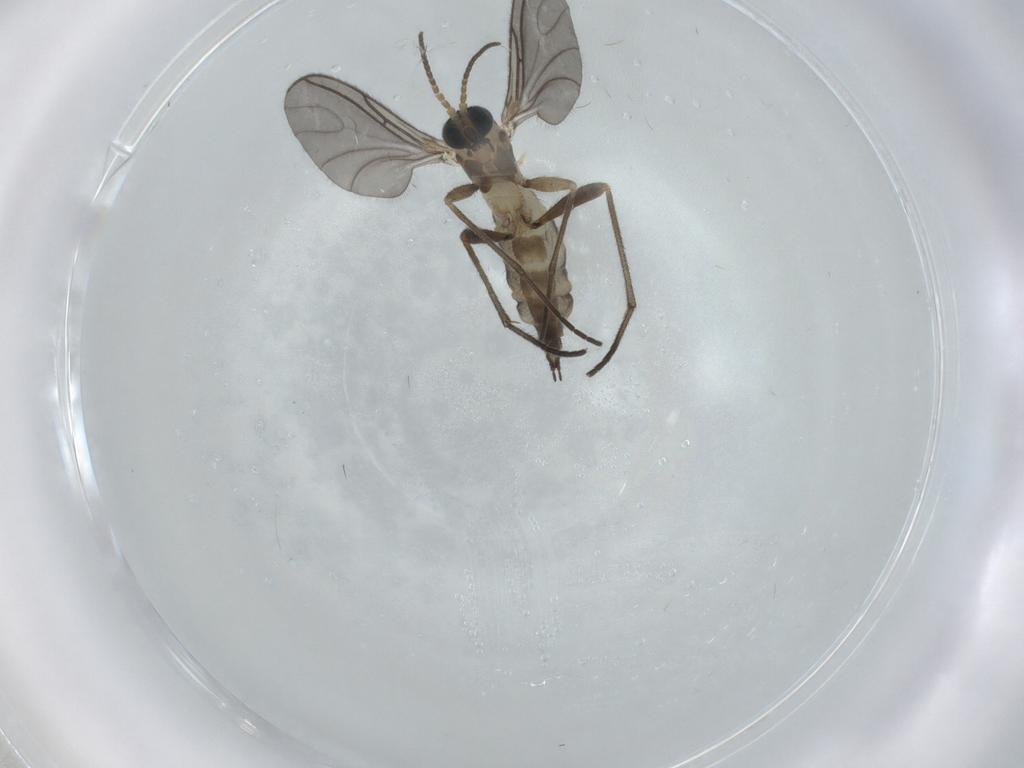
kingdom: Animalia
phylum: Arthropoda
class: Insecta
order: Diptera
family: Sciaridae
